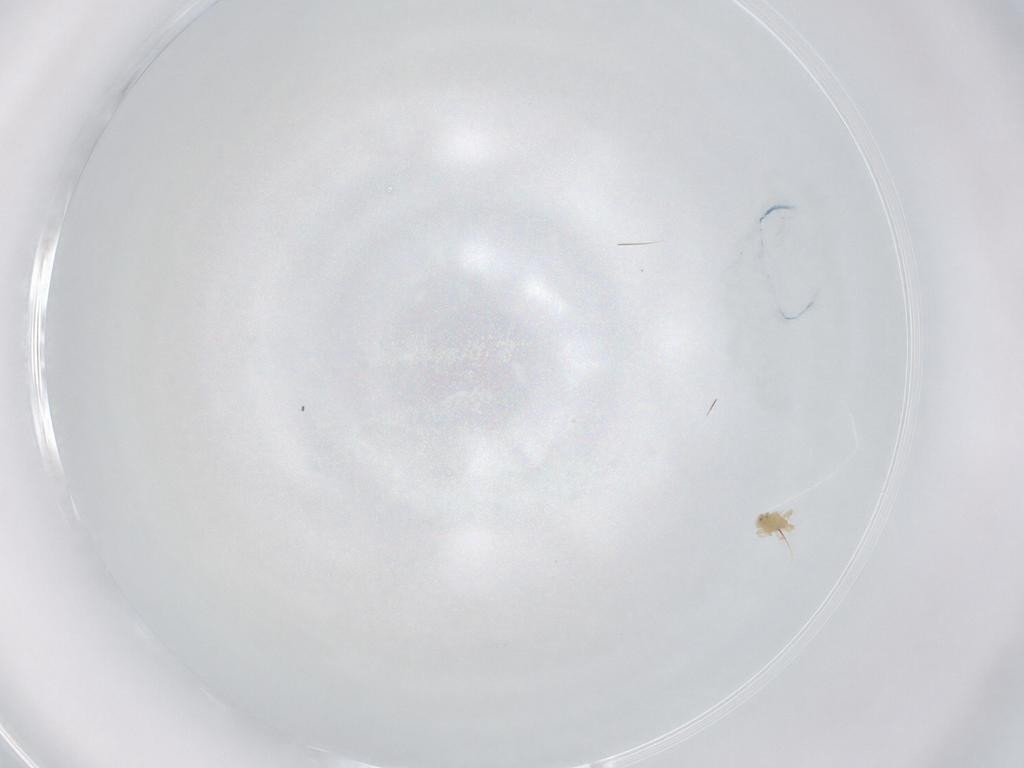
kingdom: Animalia
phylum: Arthropoda
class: Arachnida
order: Trombidiformes
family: Cunaxidae
